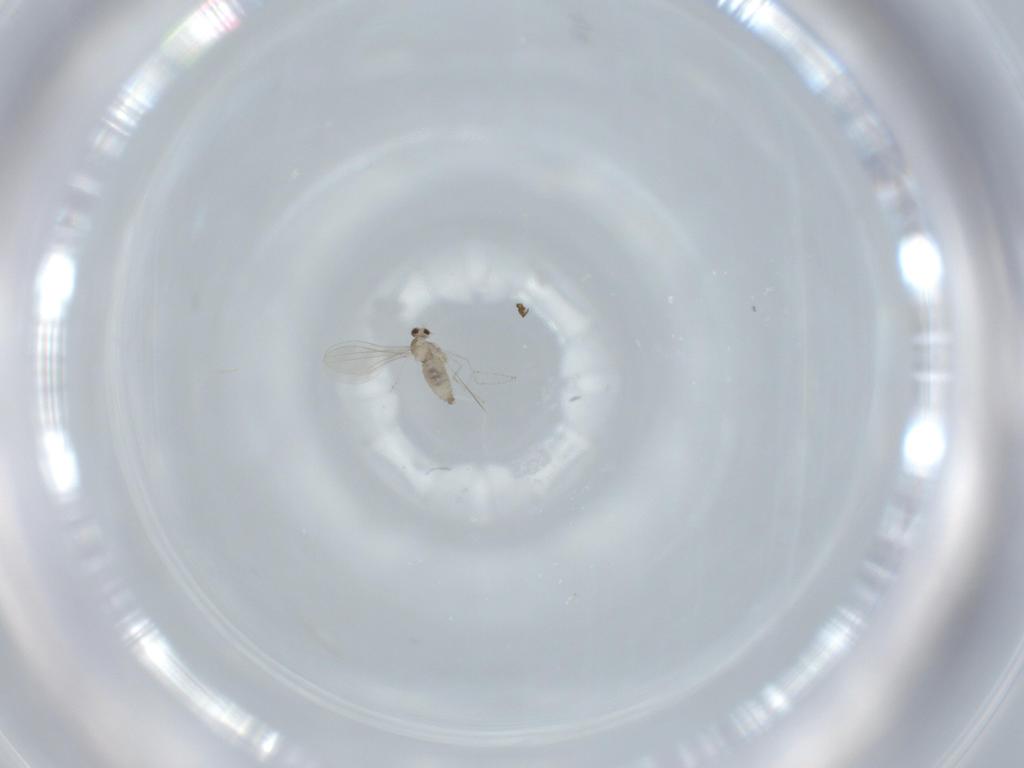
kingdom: Animalia
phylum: Arthropoda
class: Insecta
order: Diptera
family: Cecidomyiidae
